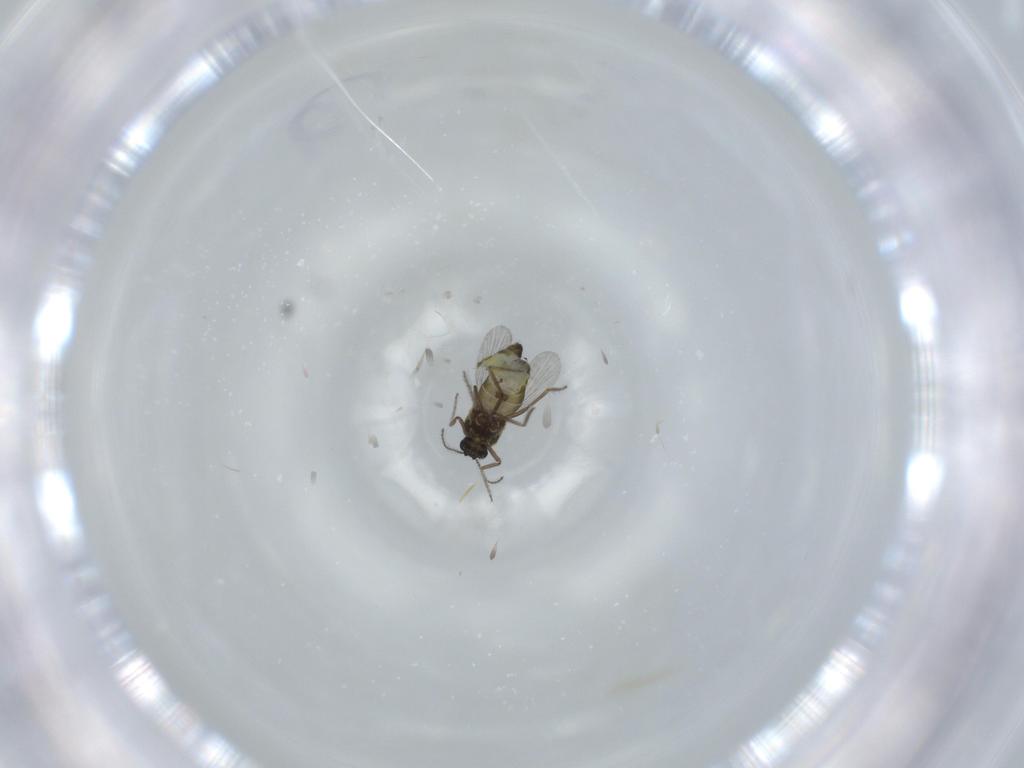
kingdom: Animalia
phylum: Arthropoda
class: Insecta
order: Diptera
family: Ceratopogonidae
